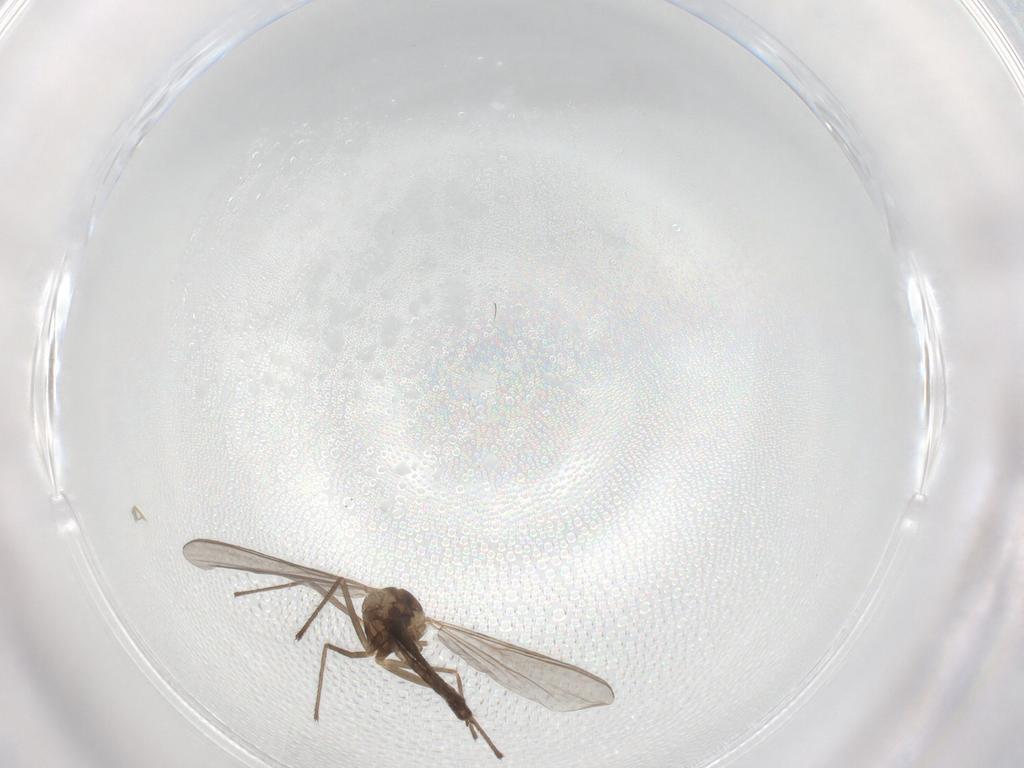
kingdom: Animalia
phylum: Arthropoda
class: Insecta
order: Diptera
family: Chironomidae
